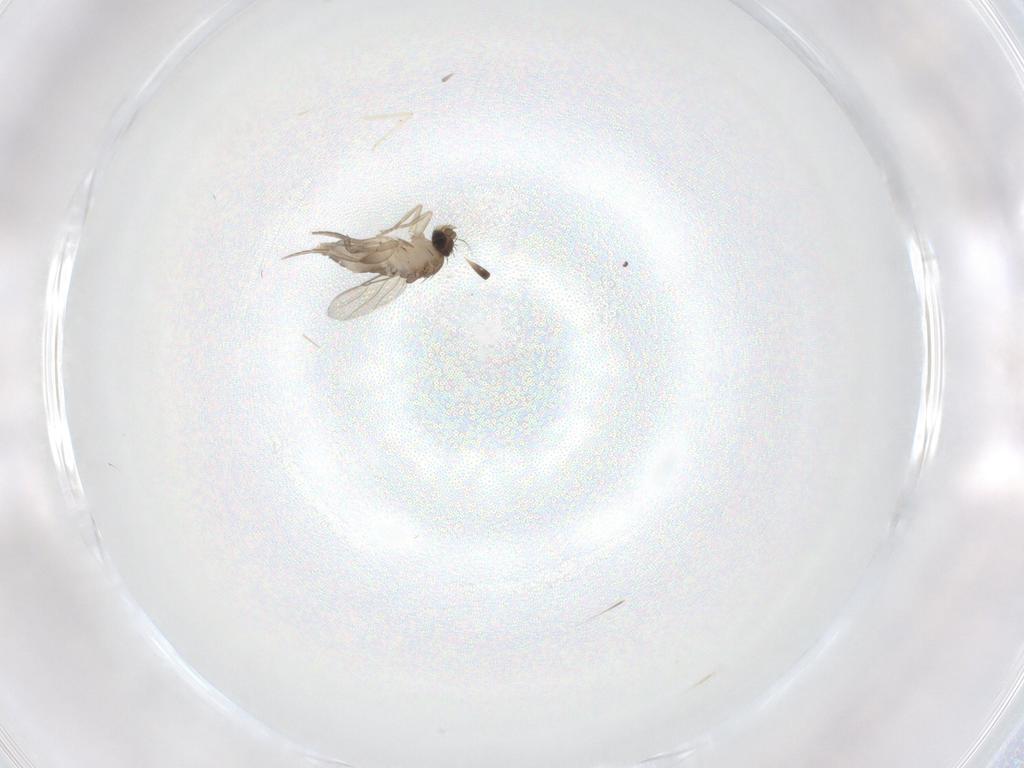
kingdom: Animalia
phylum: Arthropoda
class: Insecta
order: Diptera
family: Phoridae
